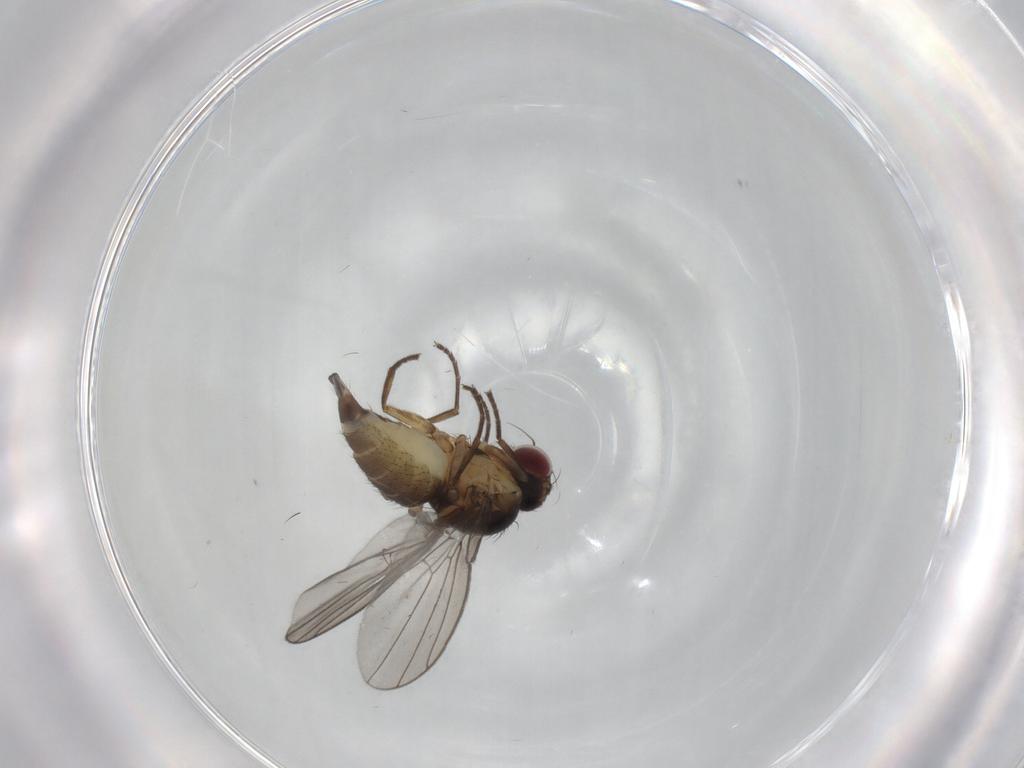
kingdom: Animalia
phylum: Arthropoda
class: Insecta
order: Diptera
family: Agromyzidae
